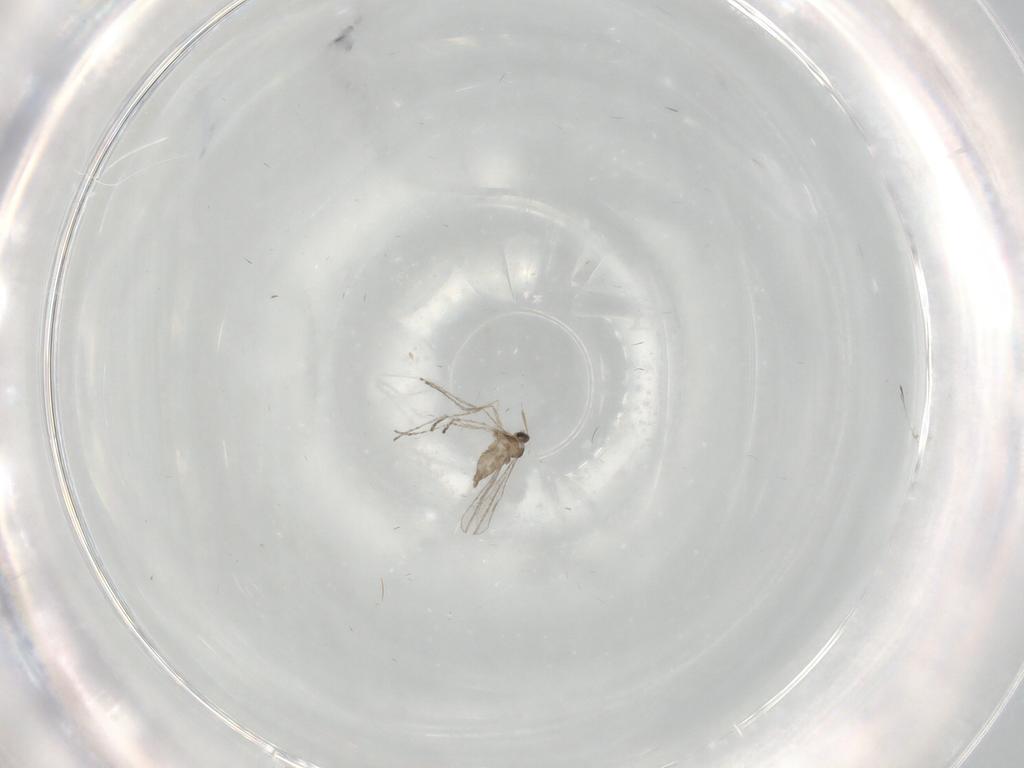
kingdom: Animalia
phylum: Arthropoda
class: Insecta
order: Diptera
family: Cecidomyiidae
